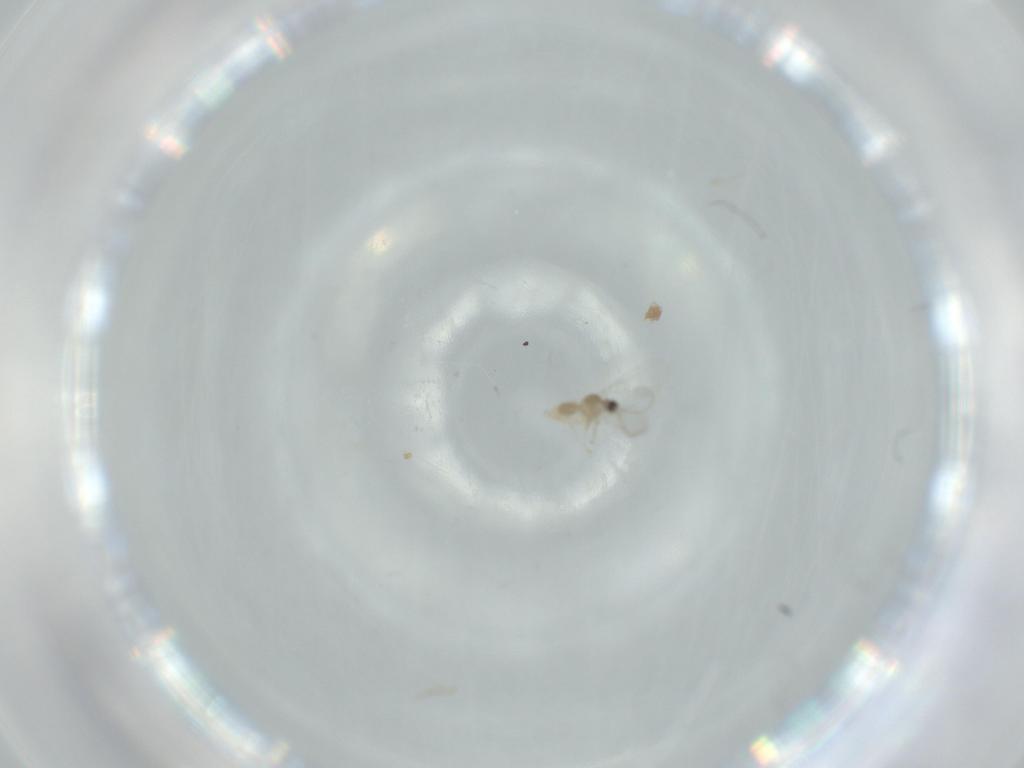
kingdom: Animalia
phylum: Arthropoda
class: Insecta
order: Diptera
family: Cecidomyiidae
